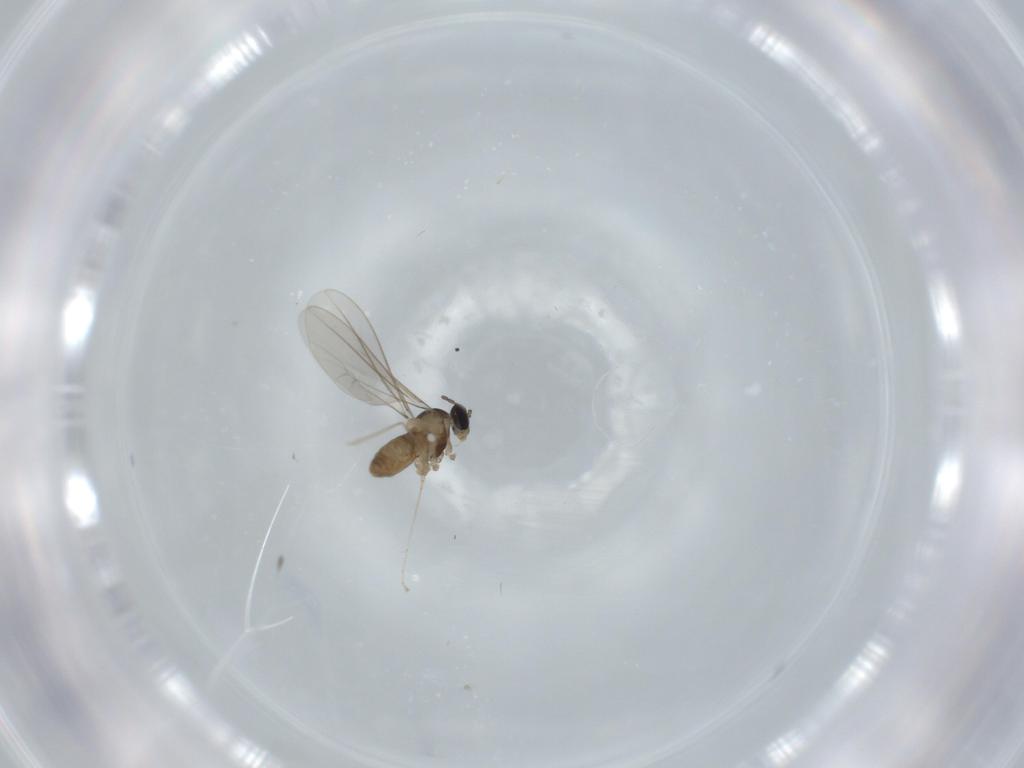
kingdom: Animalia
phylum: Arthropoda
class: Insecta
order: Diptera
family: Cecidomyiidae
